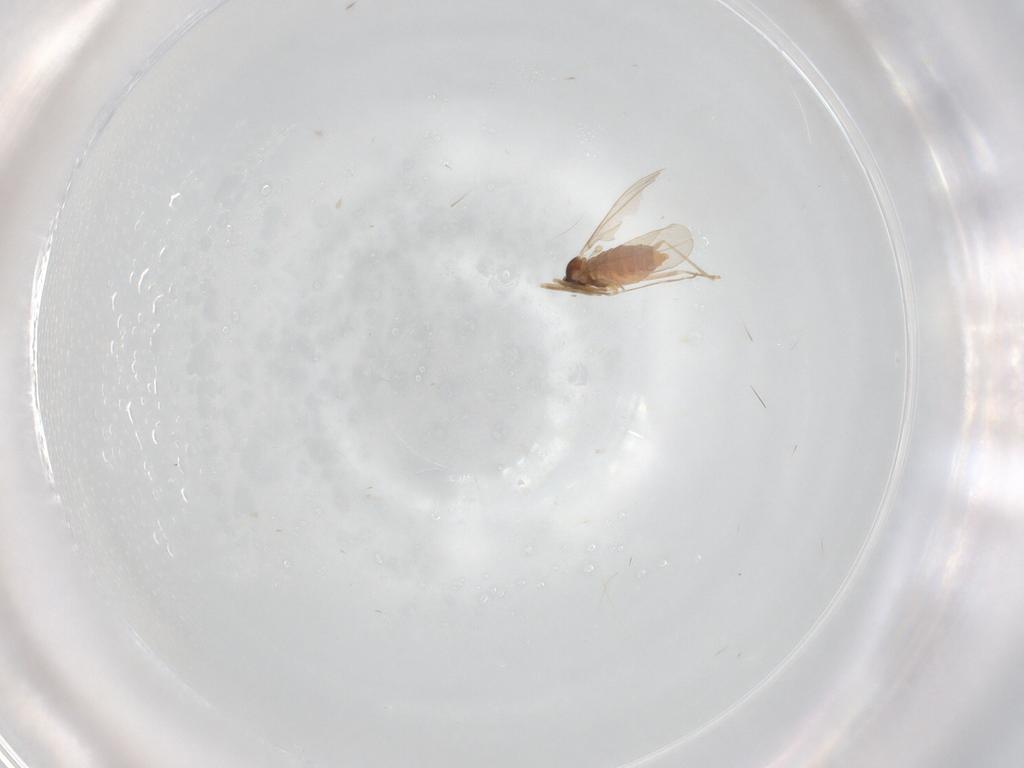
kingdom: Animalia
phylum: Arthropoda
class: Insecta
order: Diptera
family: Cecidomyiidae
